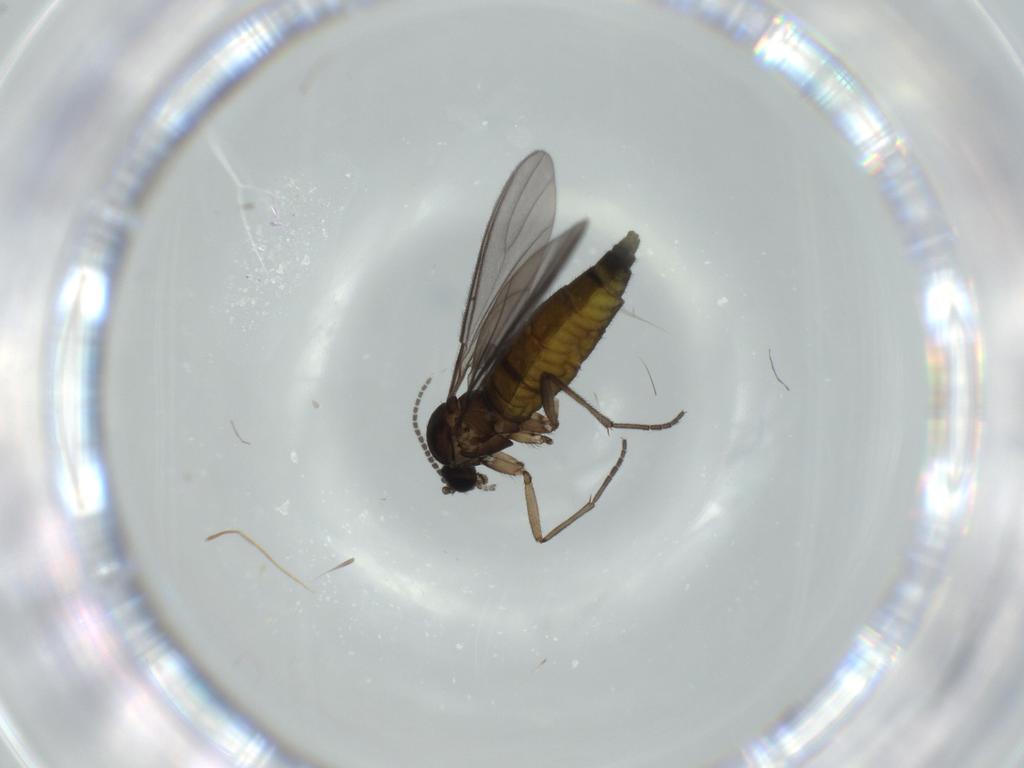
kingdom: Animalia
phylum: Arthropoda
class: Insecta
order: Diptera
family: Sciaridae
